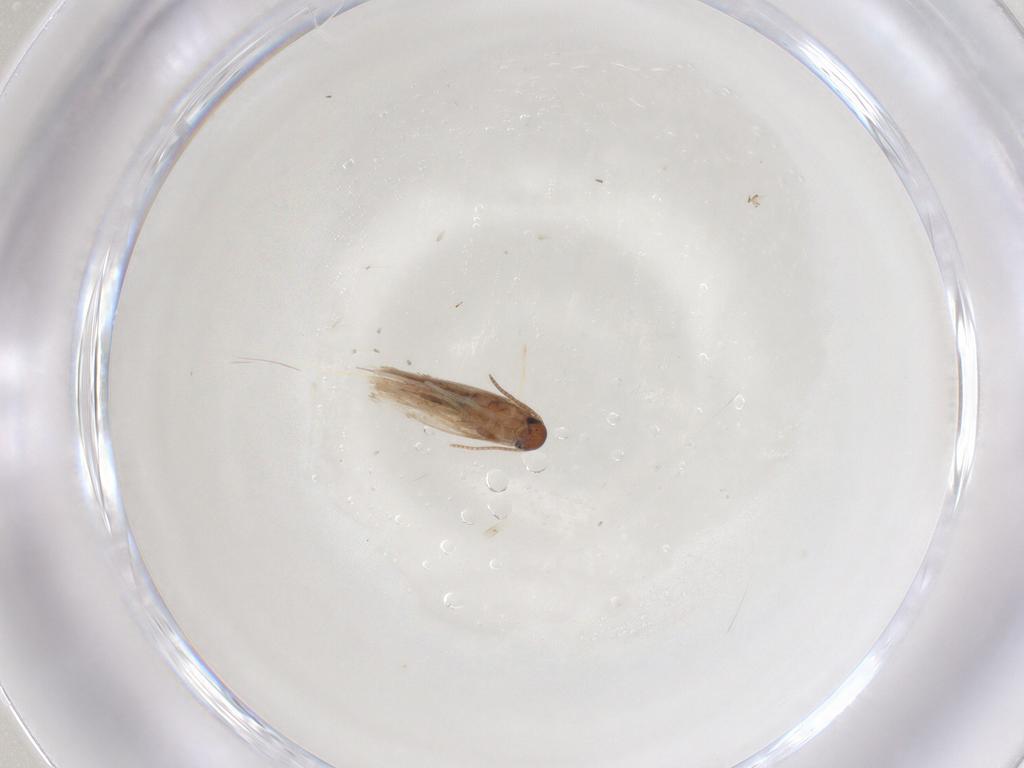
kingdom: Animalia
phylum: Arthropoda
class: Insecta
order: Lepidoptera
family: Heliozelidae
